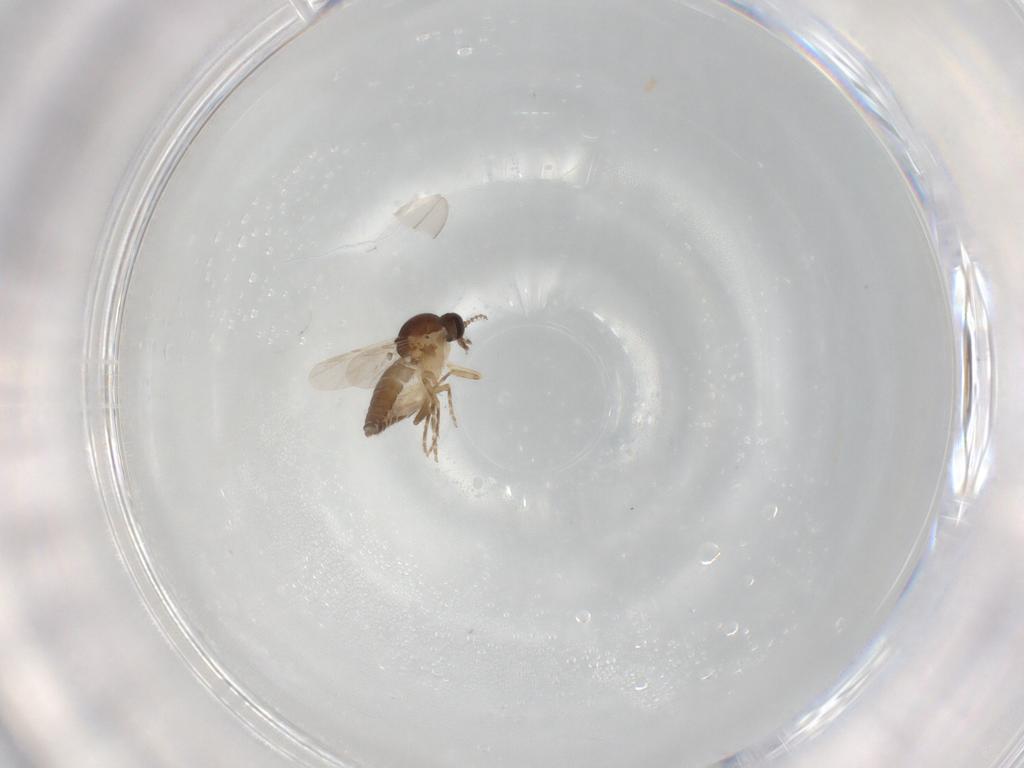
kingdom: Animalia
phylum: Arthropoda
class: Insecta
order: Diptera
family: Ceratopogonidae
